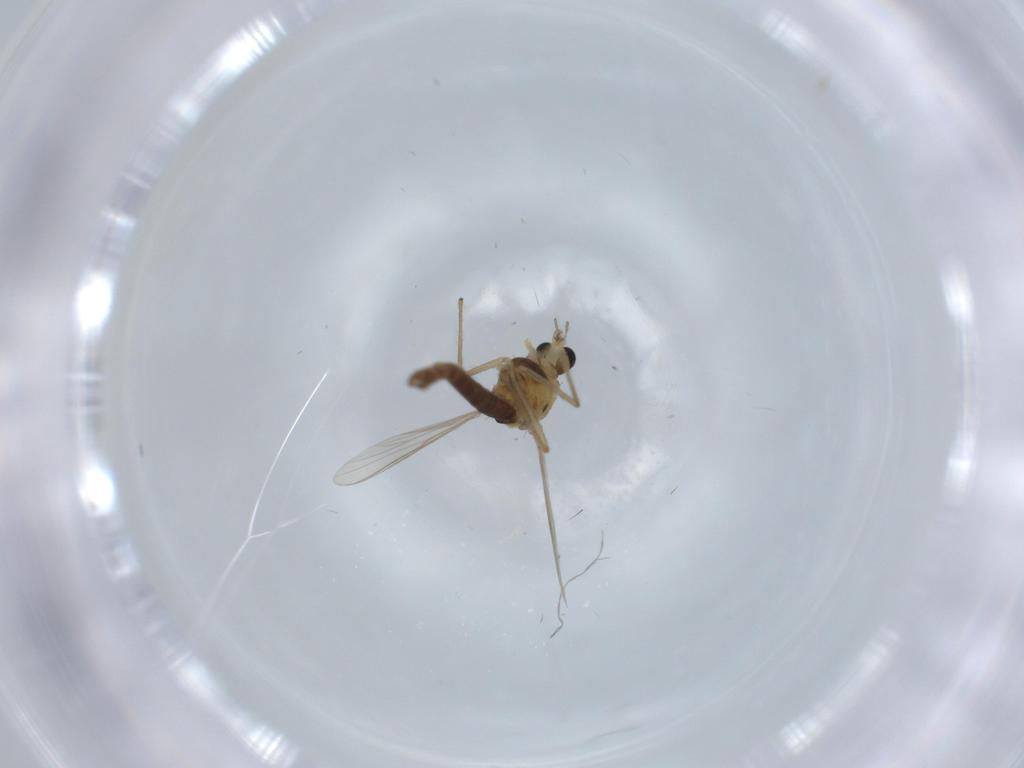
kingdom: Animalia
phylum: Arthropoda
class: Insecta
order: Diptera
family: Chironomidae
